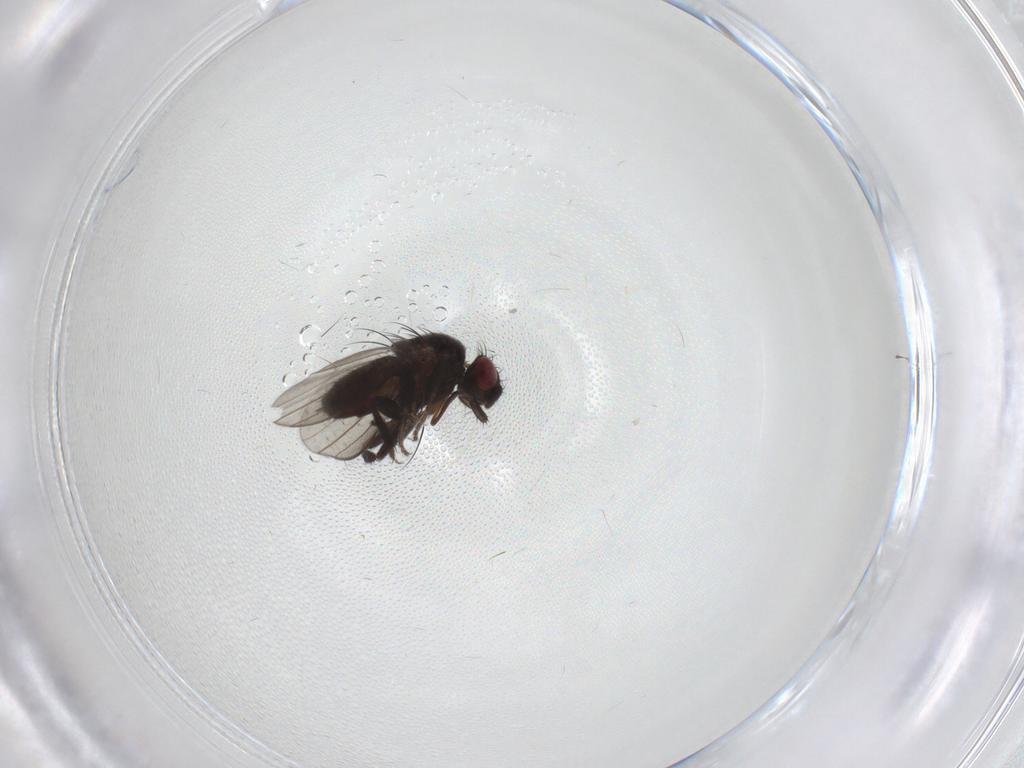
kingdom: Animalia
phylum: Arthropoda
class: Insecta
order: Diptera
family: Milichiidae
